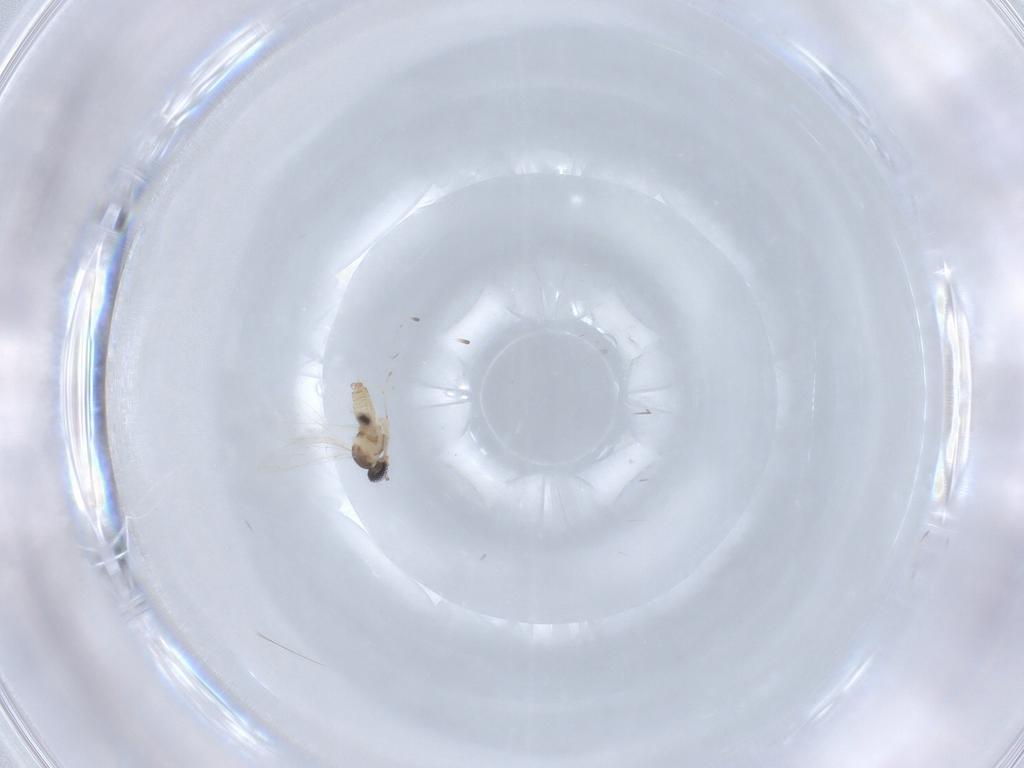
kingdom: Animalia
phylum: Arthropoda
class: Insecta
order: Diptera
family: Cecidomyiidae
